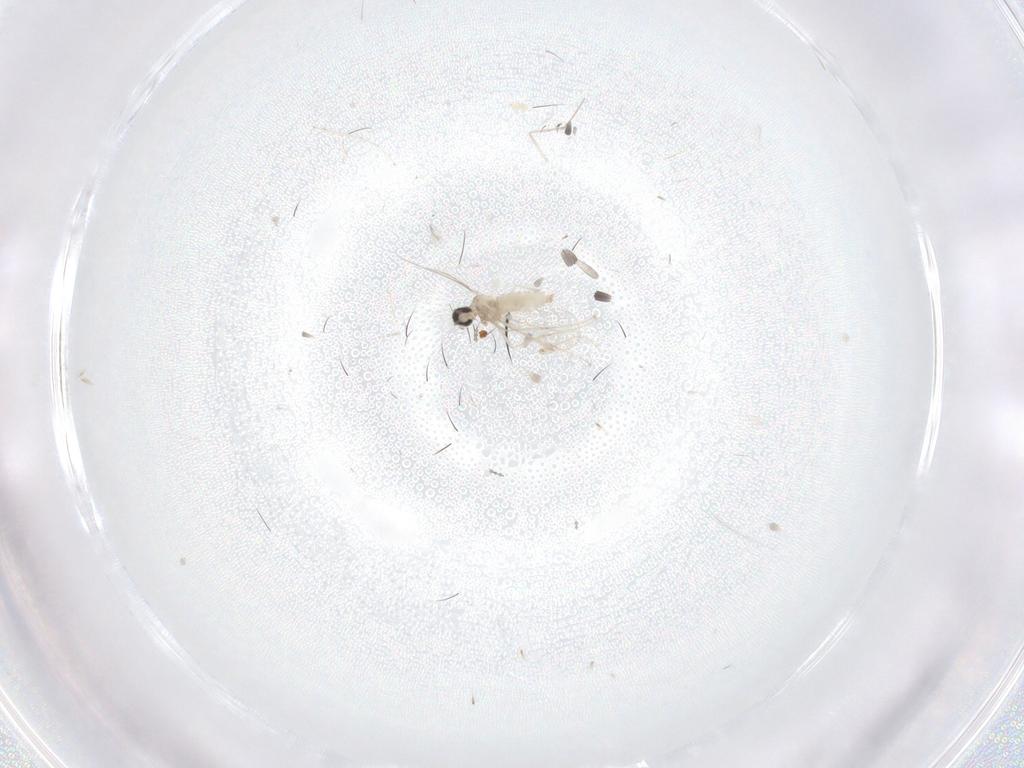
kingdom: Animalia
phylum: Arthropoda
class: Insecta
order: Diptera
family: Cecidomyiidae
